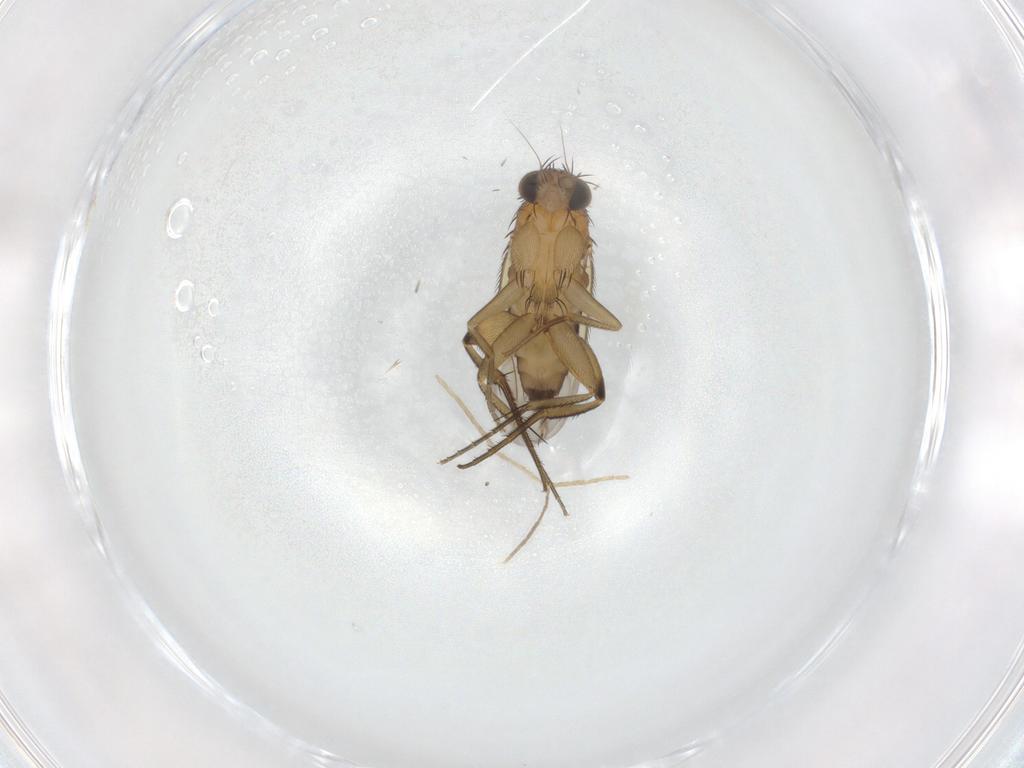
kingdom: Animalia
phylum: Arthropoda
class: Insecta
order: Diptera
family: Phoridae
